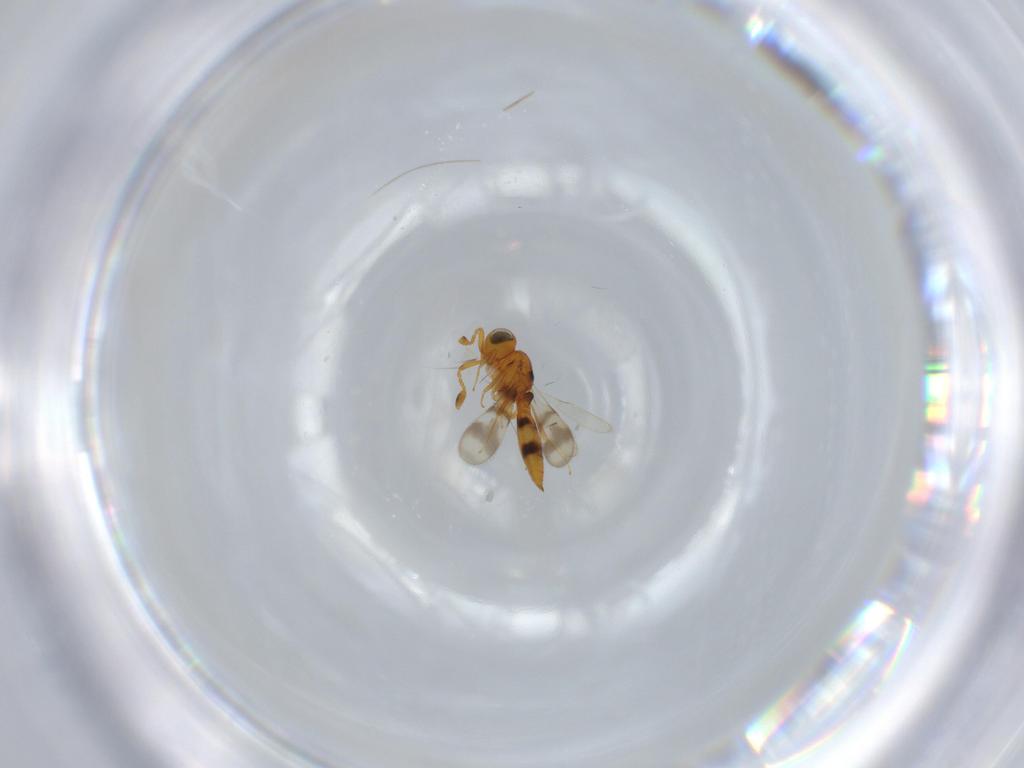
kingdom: Animalia
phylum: Arthropoda
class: Insecta
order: Hymenoptera
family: Scelionidae
